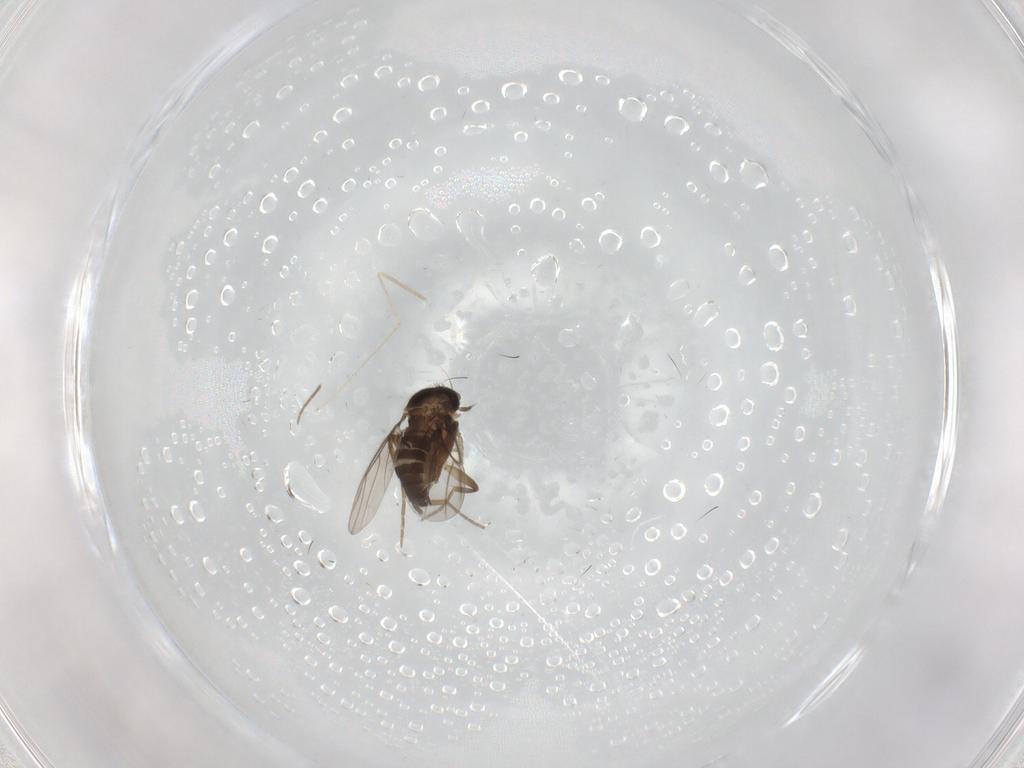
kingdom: Animalia
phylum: Arthropoda
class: Insecta
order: Diptera
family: Cecidomyiidae
